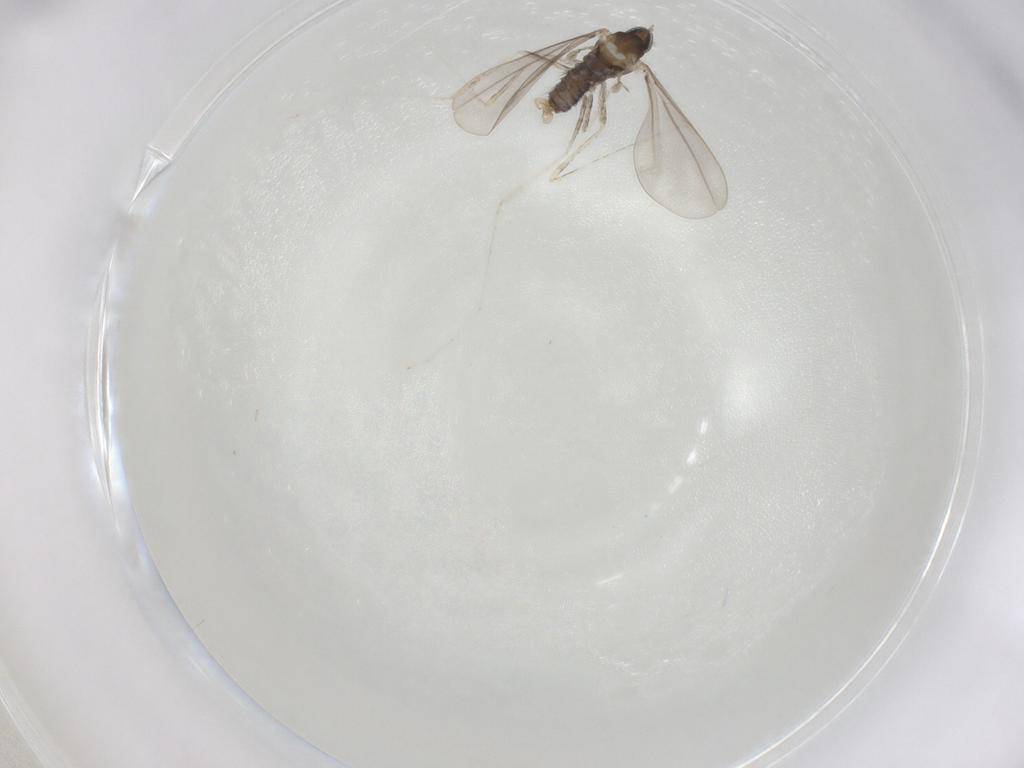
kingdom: Animalia
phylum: Arthropoda
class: Insecta
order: Diptera
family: Cecidomyiidae
